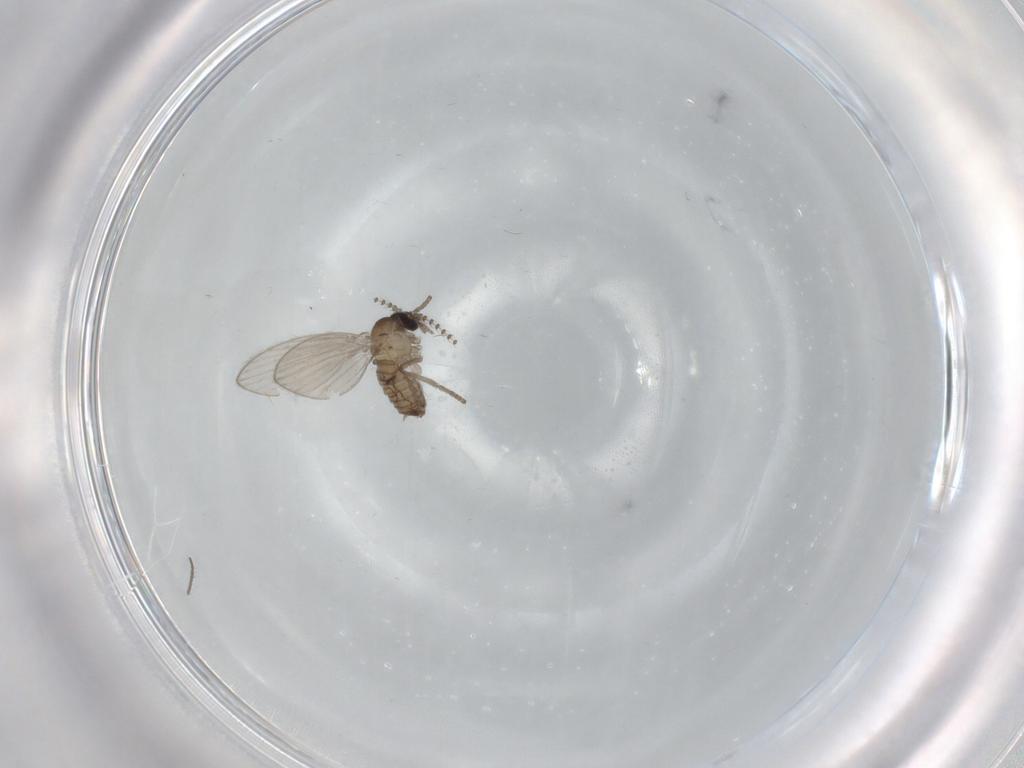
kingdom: Animalia
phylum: Arthropoda
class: Insecta
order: Diptera
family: Psychodidae
